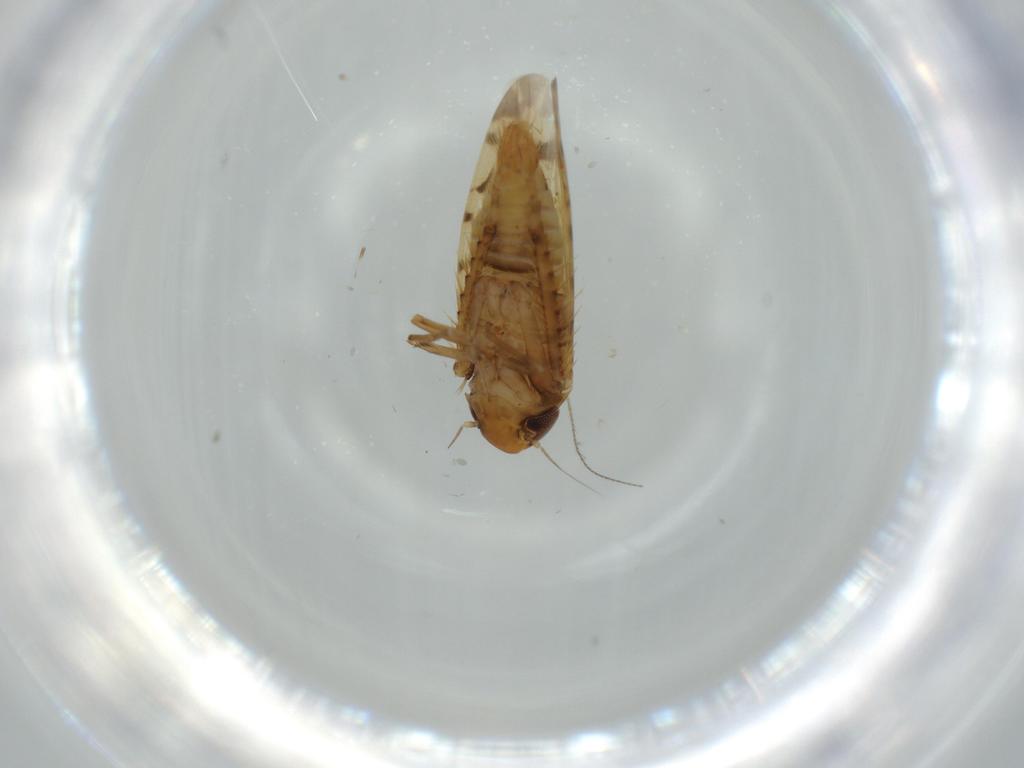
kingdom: Animalia
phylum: Arthropoda
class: Insecta
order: Hemiptera
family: Cicadellidae
